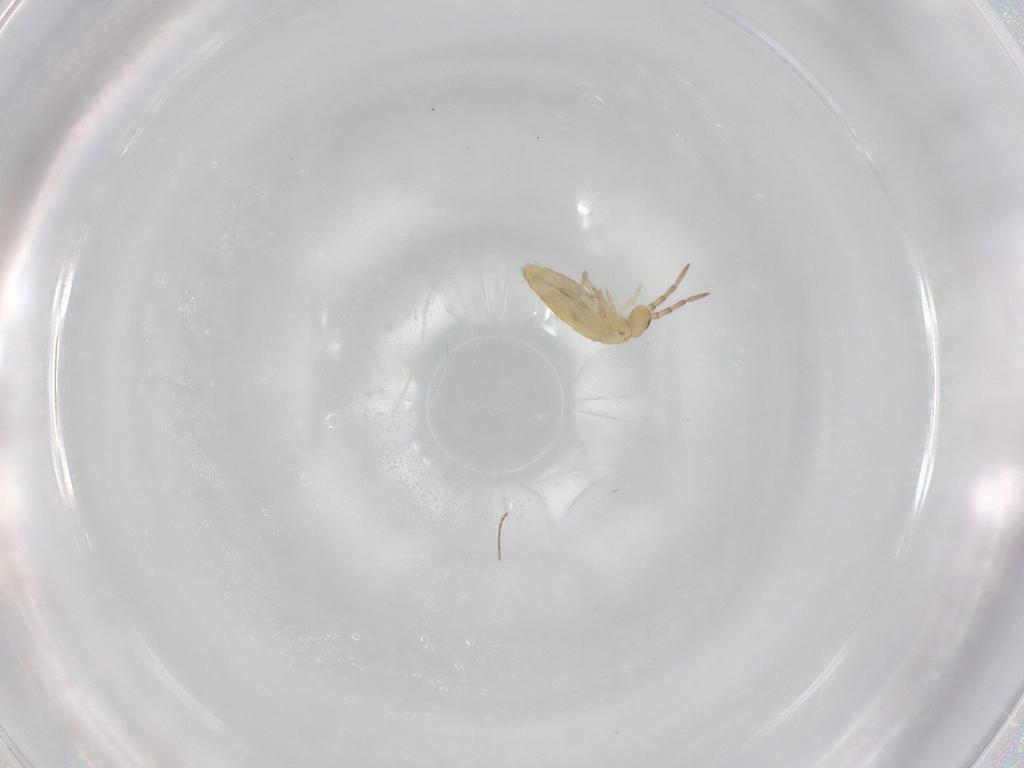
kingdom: Animalia
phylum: Arthropoda
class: Collembola
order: Entomobryomorpha
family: Entomobryidae
